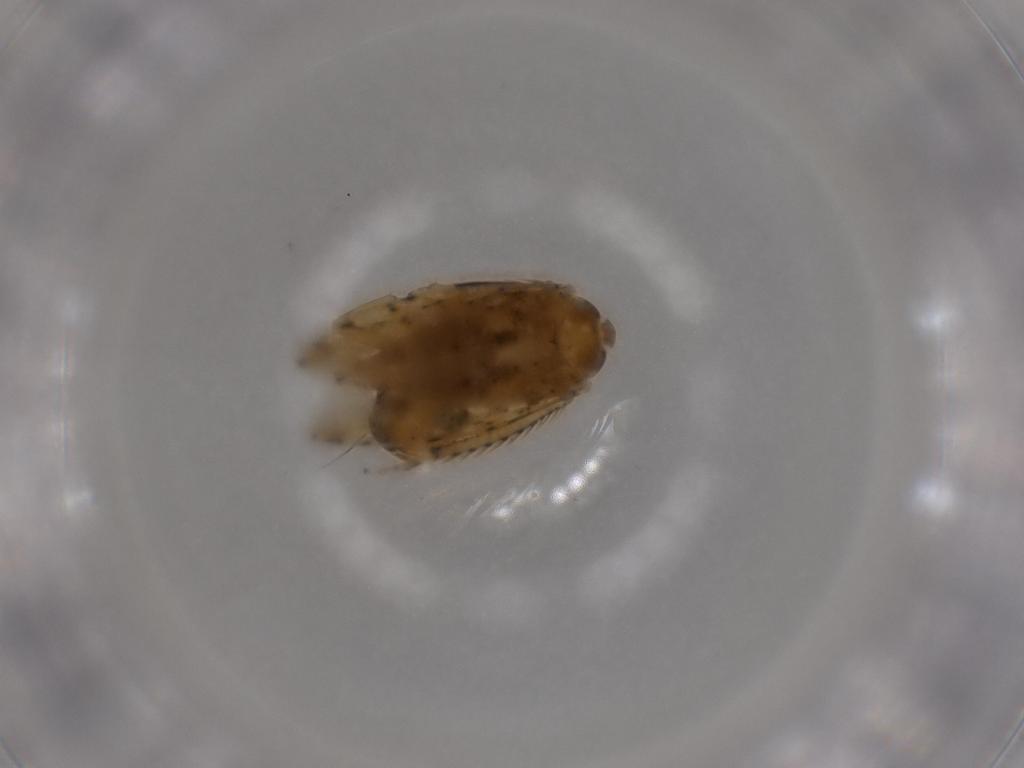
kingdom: Animalia
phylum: Arthropoda
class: Insecta
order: Hemiptera
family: Cicadellidae
